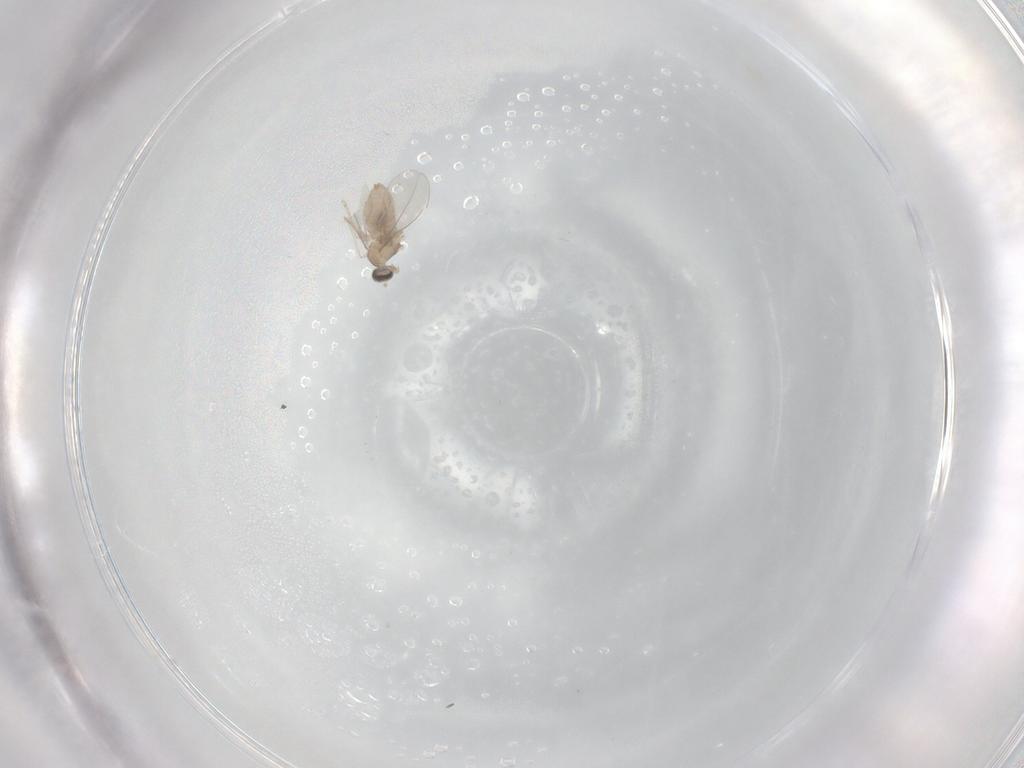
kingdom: Animalia
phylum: Arthropoda
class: Insecta
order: Diptera
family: Cecidomyiidae
